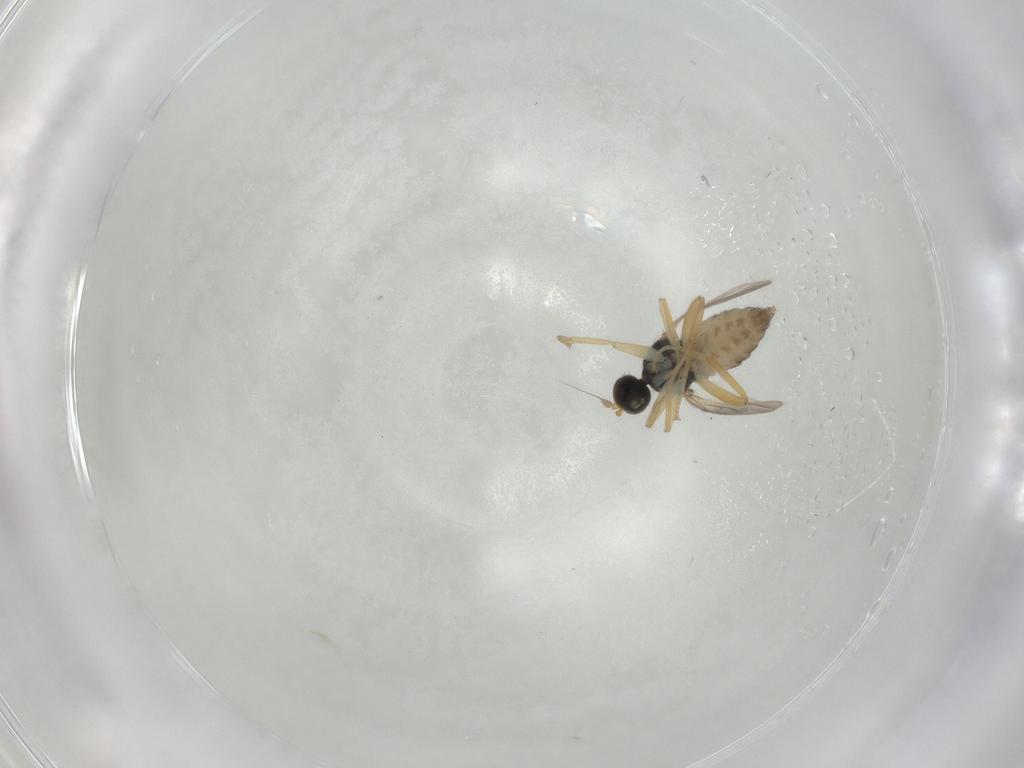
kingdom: Animalia
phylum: Arthropoda
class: Insecta
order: Diptera
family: Hybotidae
